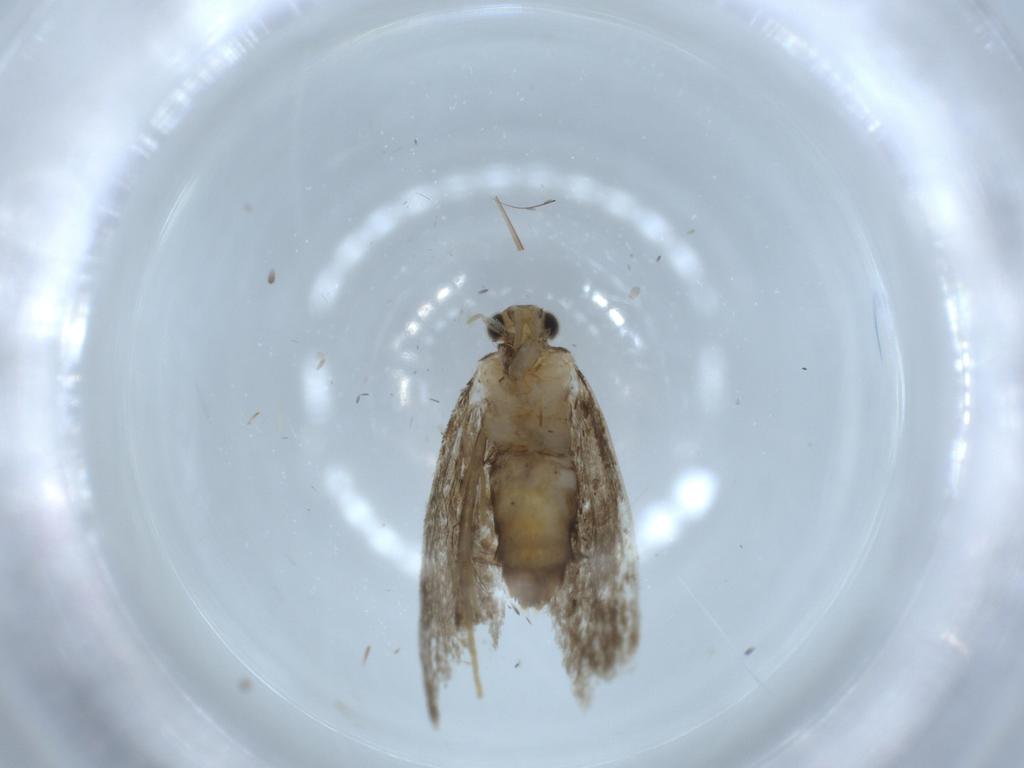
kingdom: Animalia
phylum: Arthropoda
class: Insecta
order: Lepidoptera
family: Tineidae
